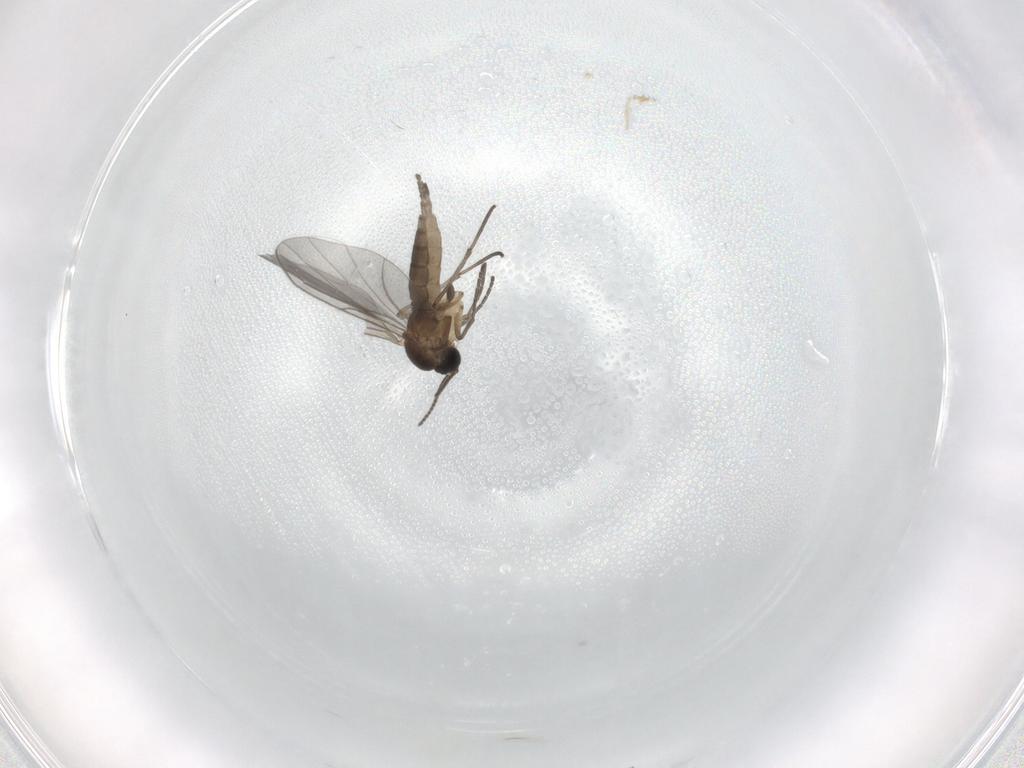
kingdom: Animalia
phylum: Arthropoda
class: Insecta
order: Diptera
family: Sciaridae
